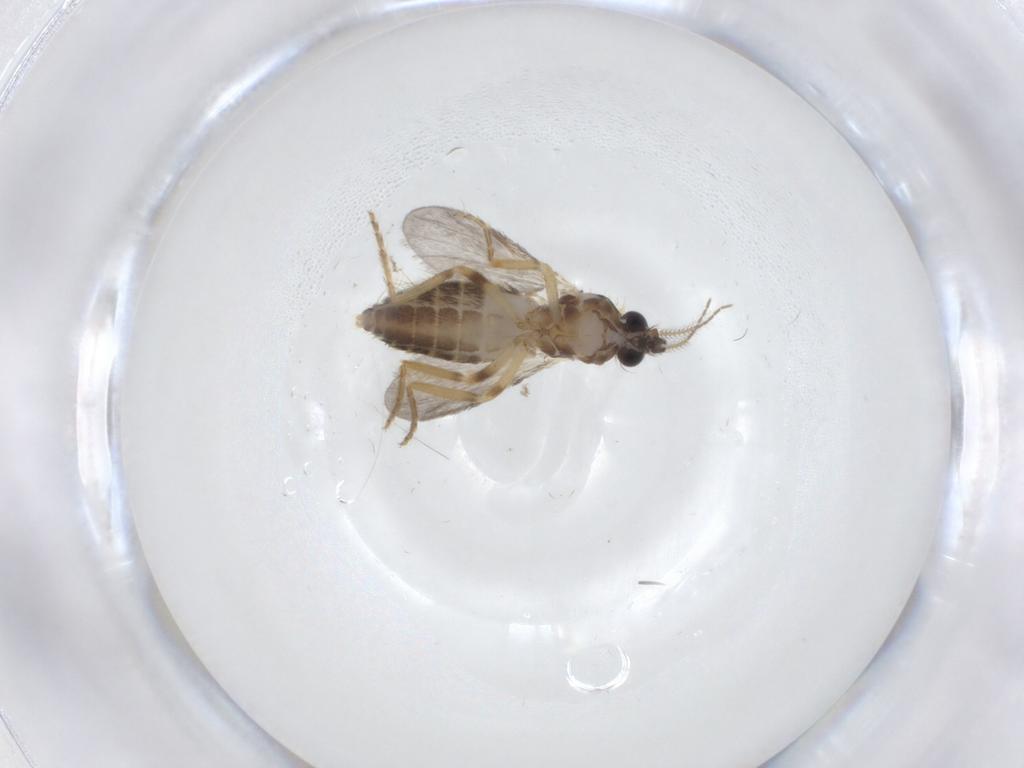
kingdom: Animalia
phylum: Arthropoda
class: Insecta
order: Diptera
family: Ceratopogonidae
